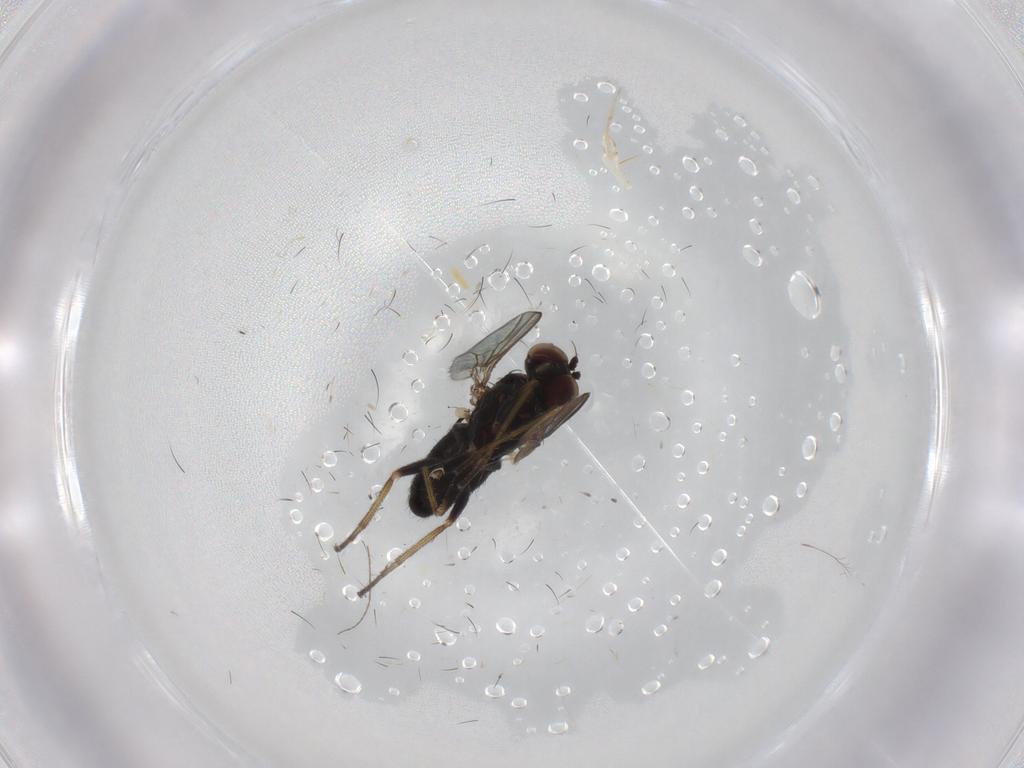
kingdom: Animalia
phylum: Arthropoda
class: Insecta
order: Diptera
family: Dolichopodidae
